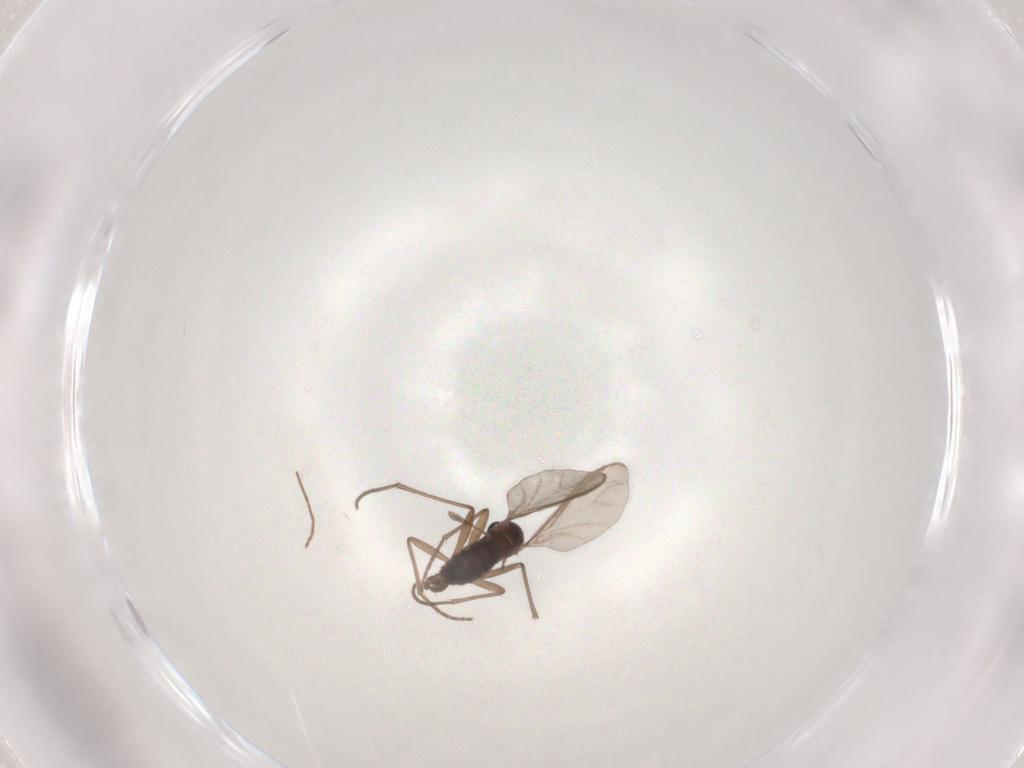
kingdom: Animalia
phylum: Arthropoda
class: Insecta
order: Diptera
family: Sciaridae
